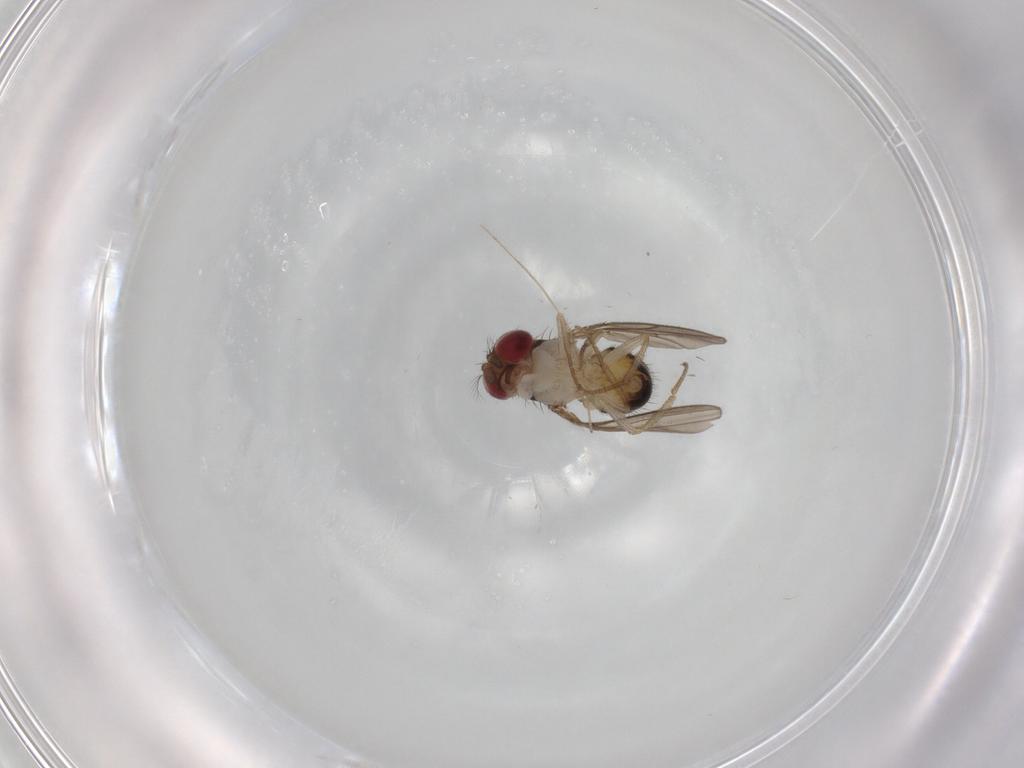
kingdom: Animalia
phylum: Arthropoda
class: Insecta
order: Diptera
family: Drosophilidae
